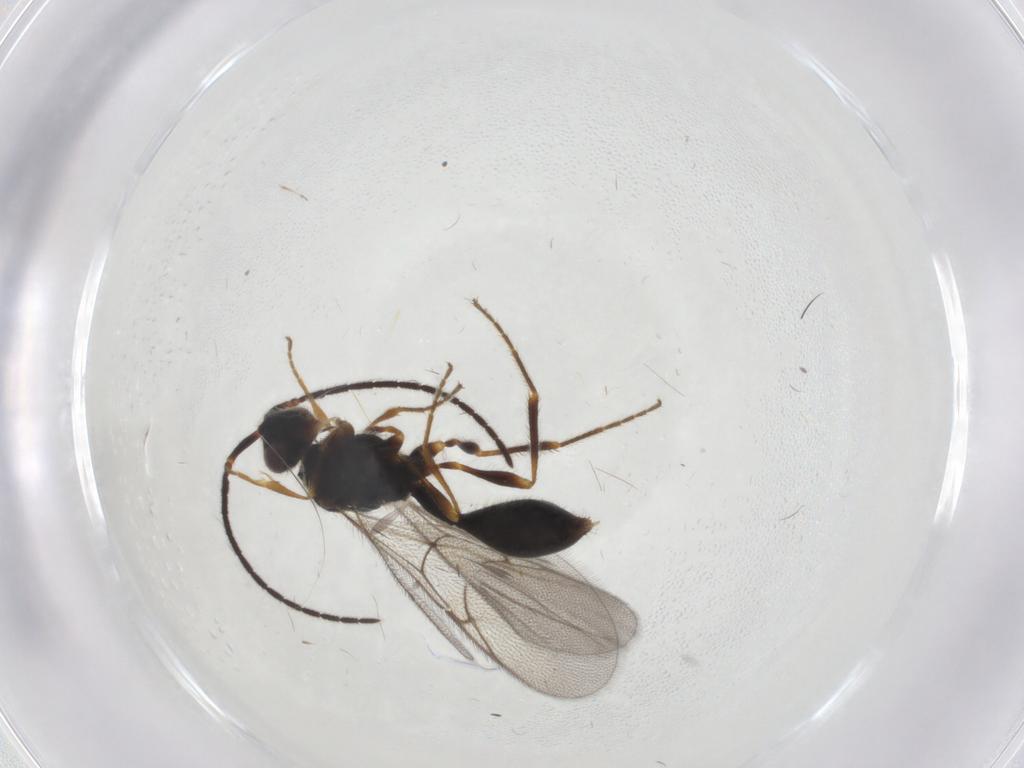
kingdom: Animalia
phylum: Arthropoda
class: Insecta
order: Hymenoptera
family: Diapriidae
